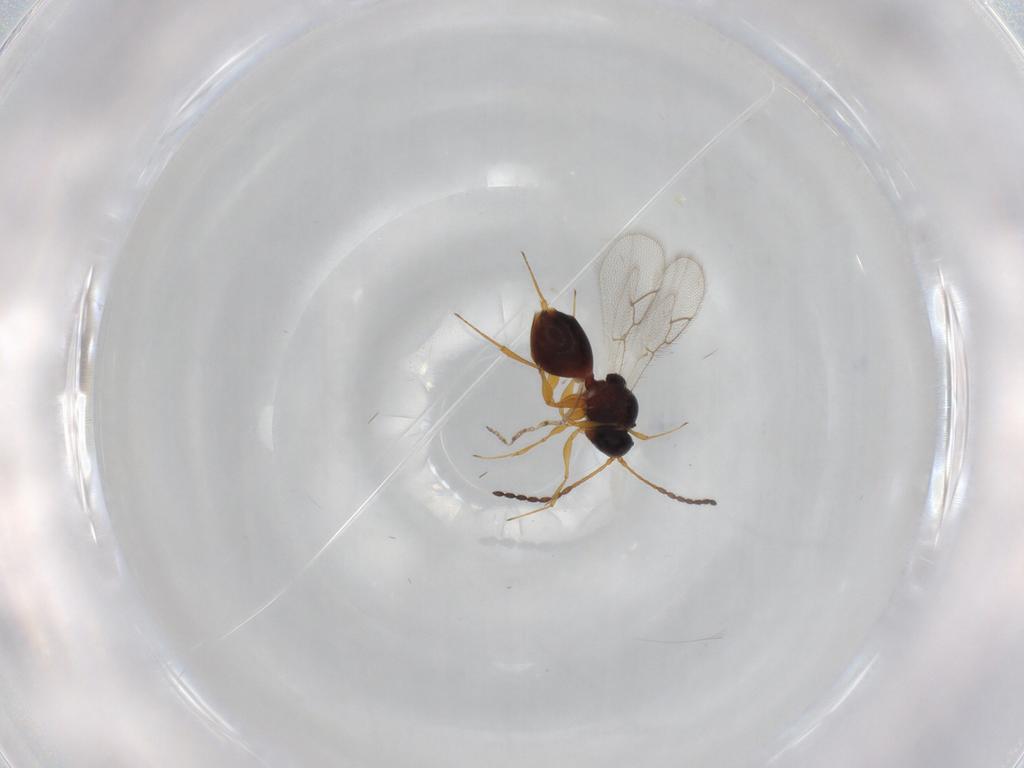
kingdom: Animalia
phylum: Arthropoda
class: Insecta
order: Hymenoptera
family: Figitidae
